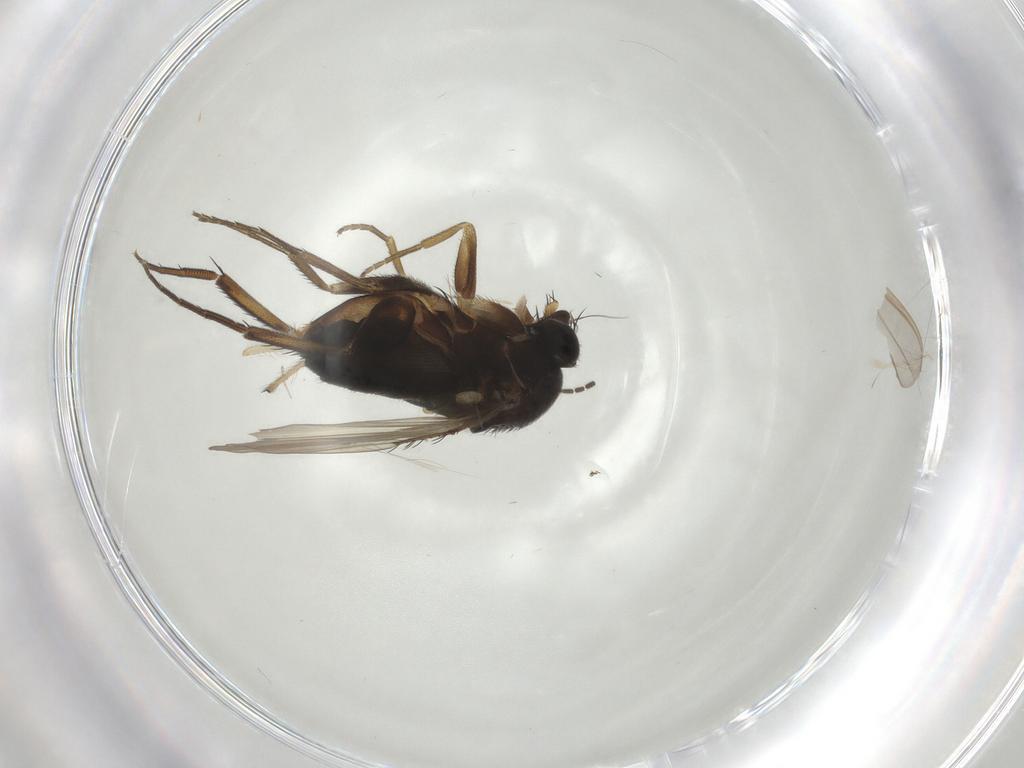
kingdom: Animalia
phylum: Arthropoda
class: Insecta
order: Diptera
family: Phoridae
